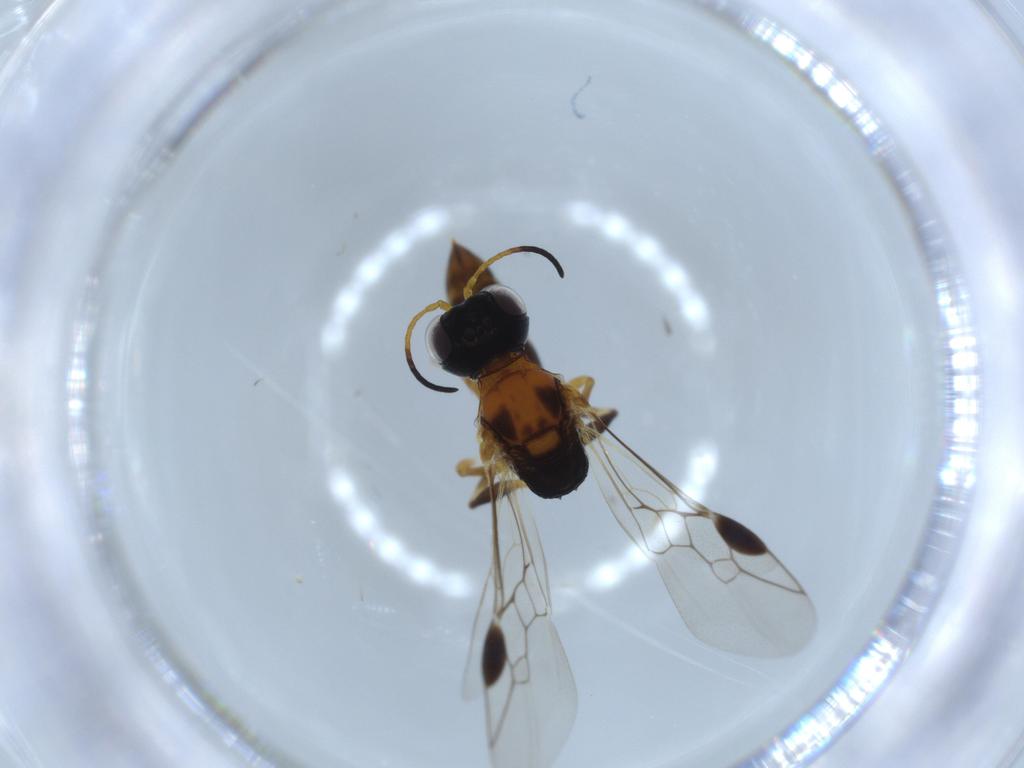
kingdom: Animalia
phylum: Arthropoda
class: Insecta
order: Hymenoptera
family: Pemphredonidae
